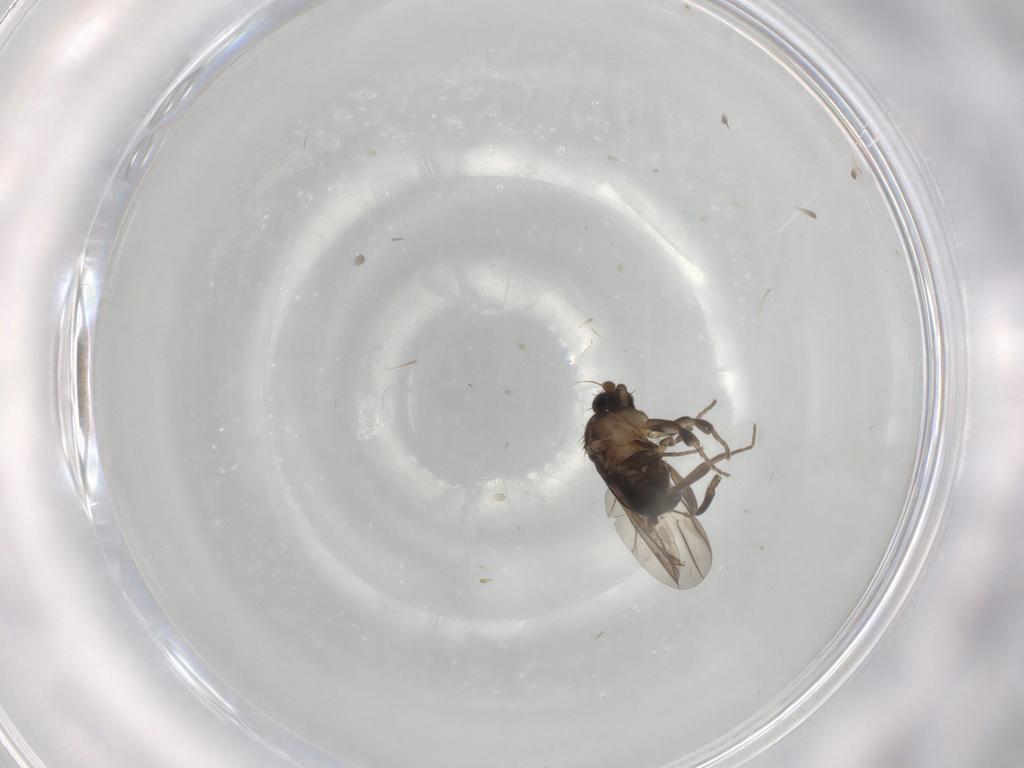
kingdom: Animalia
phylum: Arthropoda
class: Insecta
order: Diptera
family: Phoridae
